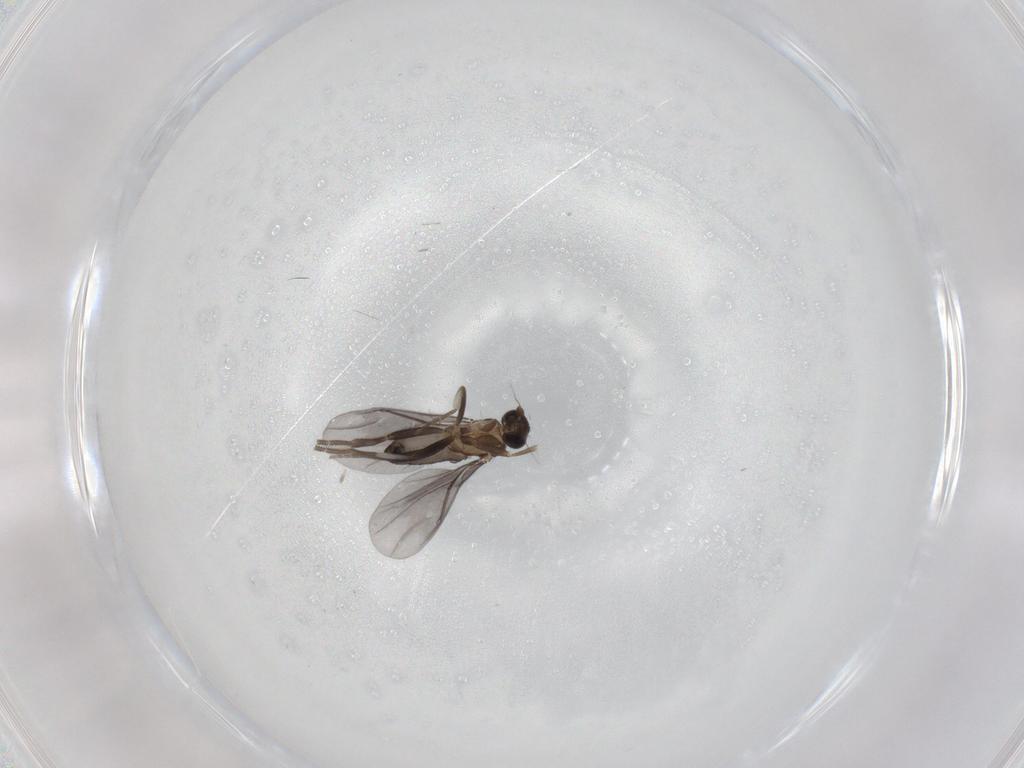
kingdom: Animalia
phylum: Arthropoda
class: Insecta
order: Diptera
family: Phoridae
